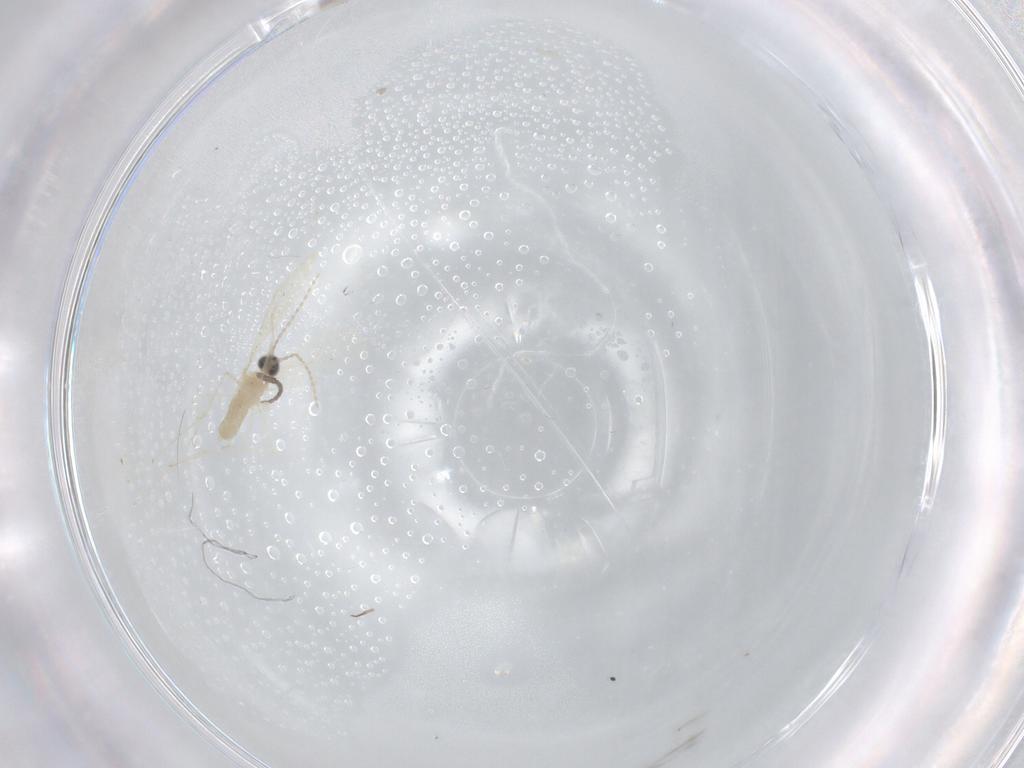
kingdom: Animalia
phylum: Arthropoda
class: Insecta
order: Diptera
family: Cecidomyiidae
